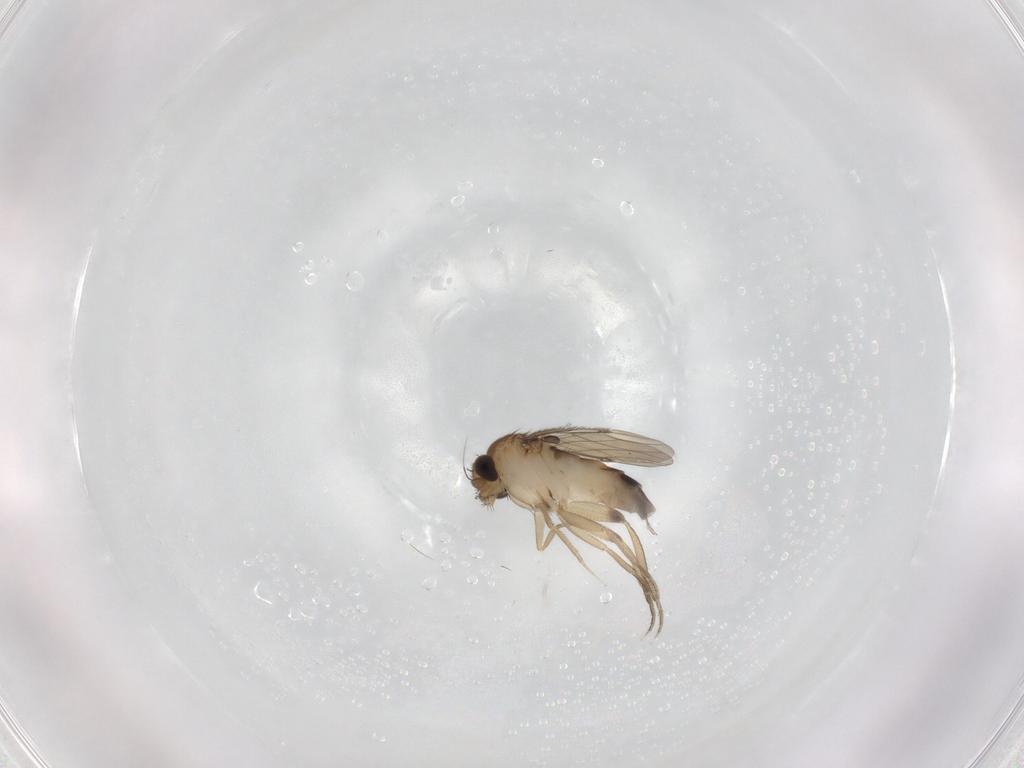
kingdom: Animalia
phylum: Arthropoda
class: Insecta
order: Diptera
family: Phoridae
